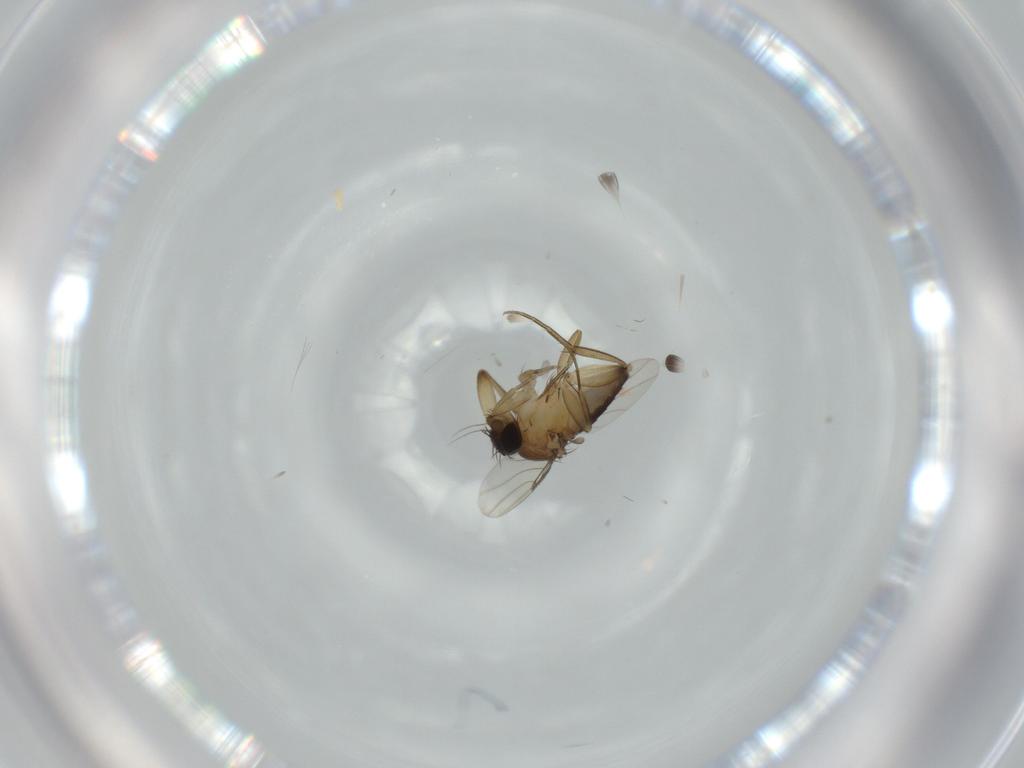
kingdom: Animalia
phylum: Arthropoda
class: Insecta
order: Diptera
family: Phoridae
